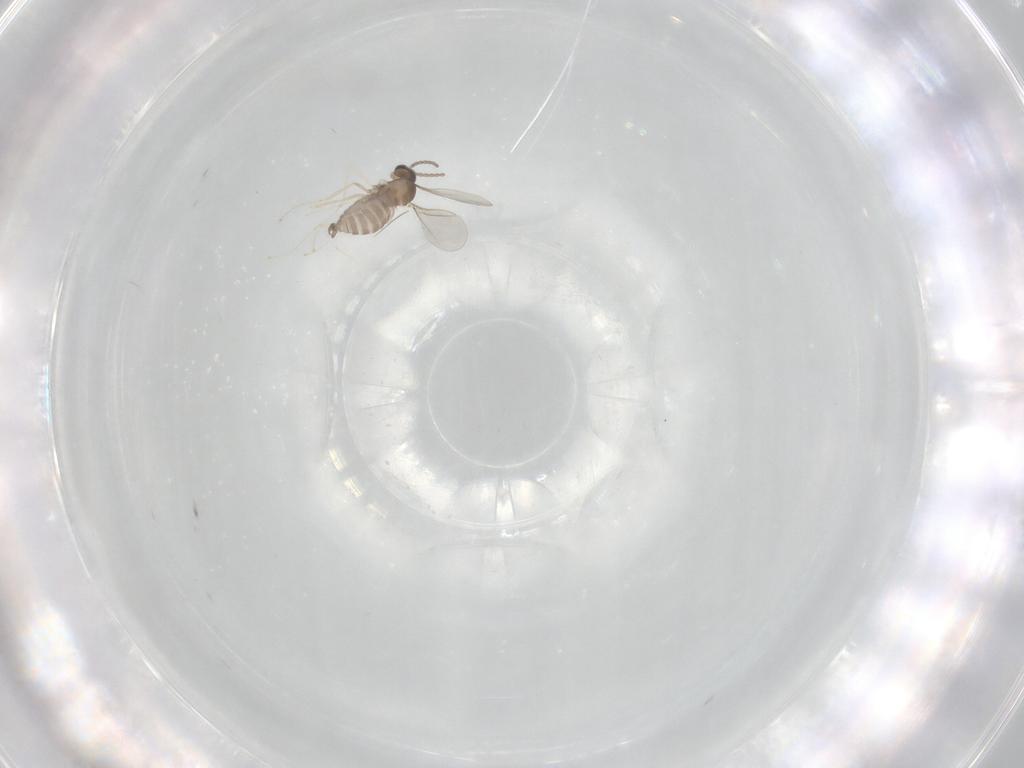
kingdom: Animalia
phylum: Arthropoda
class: Insecta
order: Diptera
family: Cecidomyiidae
